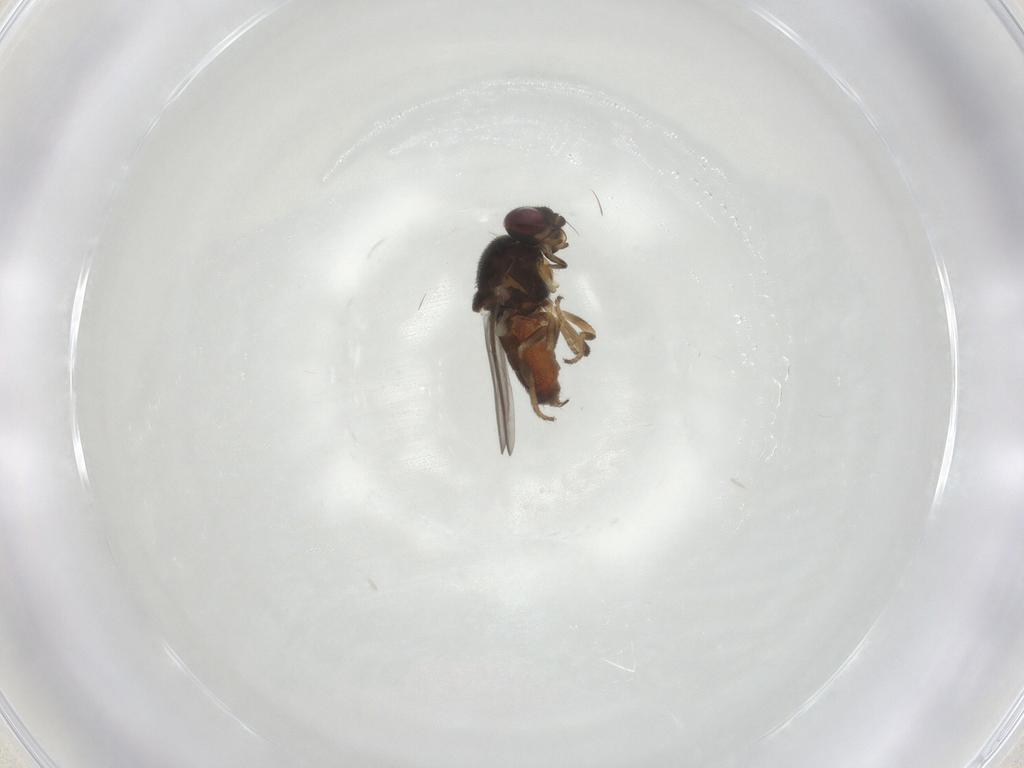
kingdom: Animalia
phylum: Arthropoda
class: Insecta
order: Diptera
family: Chloropidae
